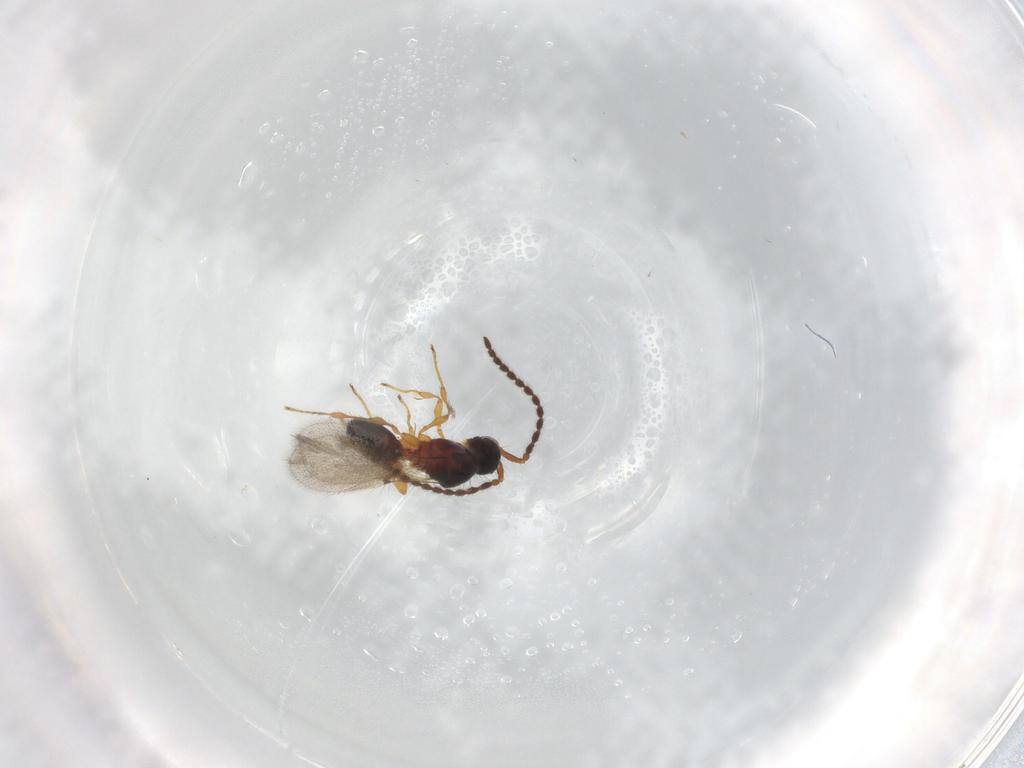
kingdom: Animalia
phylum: Arthropoda
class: Insecta
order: Hymenoptera
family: Diapriidae
